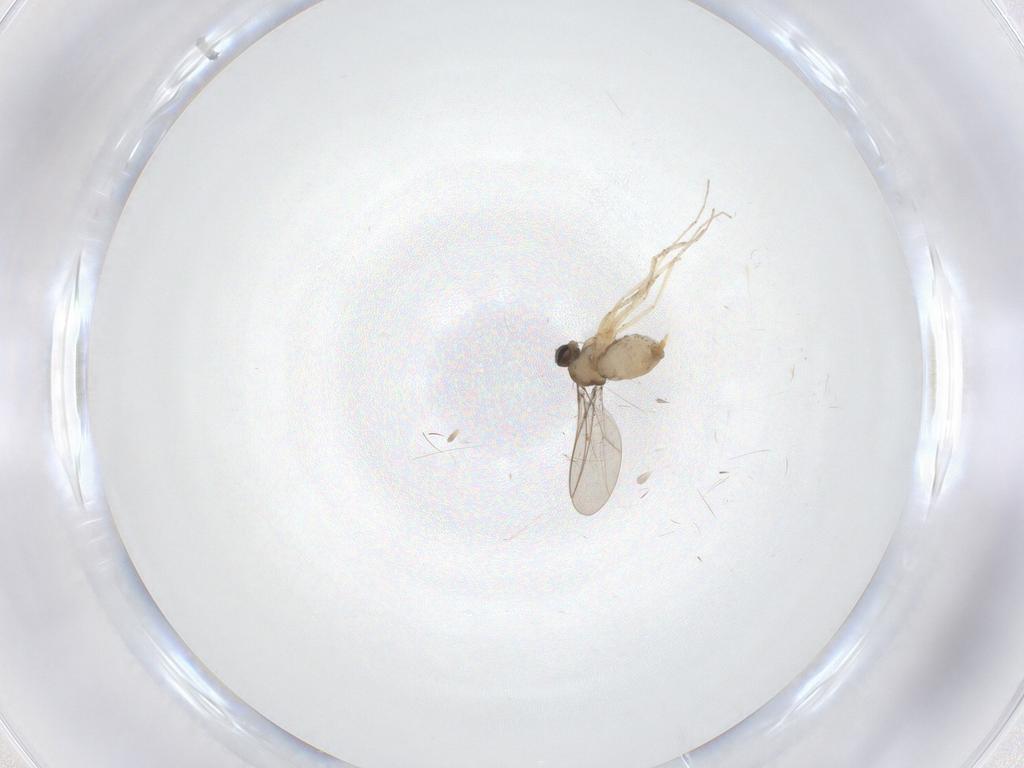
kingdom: Animalia
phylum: Arthropoda
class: Insecta
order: Diptera
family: Cecidomyiidae
